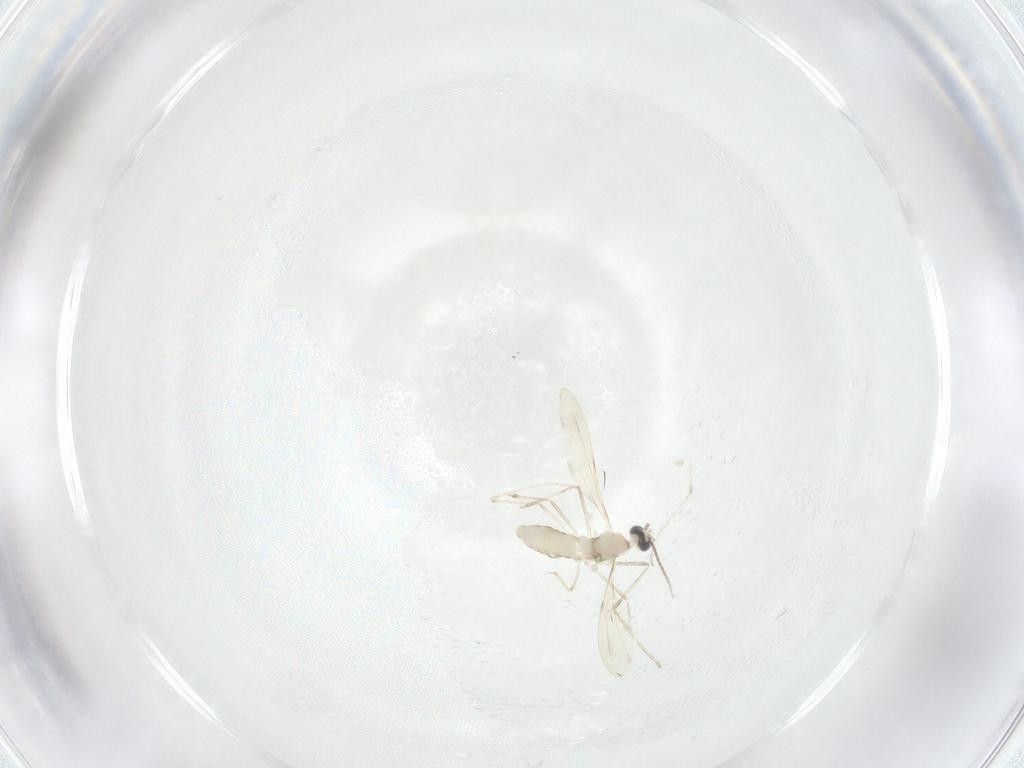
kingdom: Animalia
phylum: Arthropoda
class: Insecta
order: Diptera
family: Cecidomyiidae
